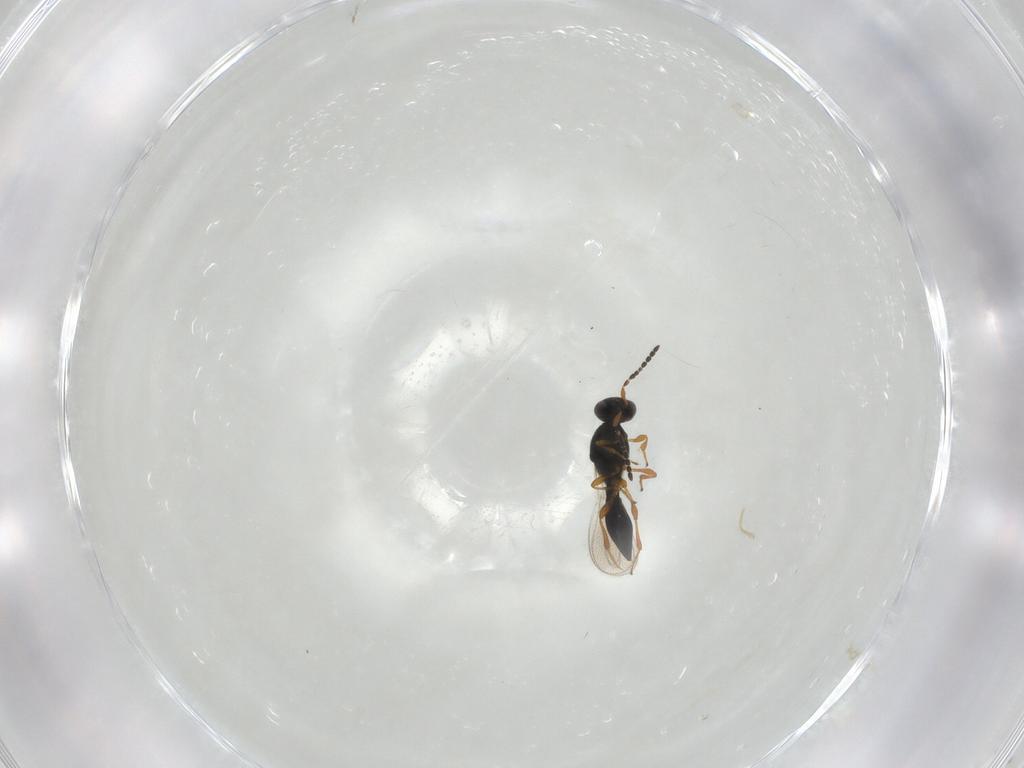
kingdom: Animalia
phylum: Arthropoda
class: Insecta
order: Hymenoptera
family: Platygastridae
